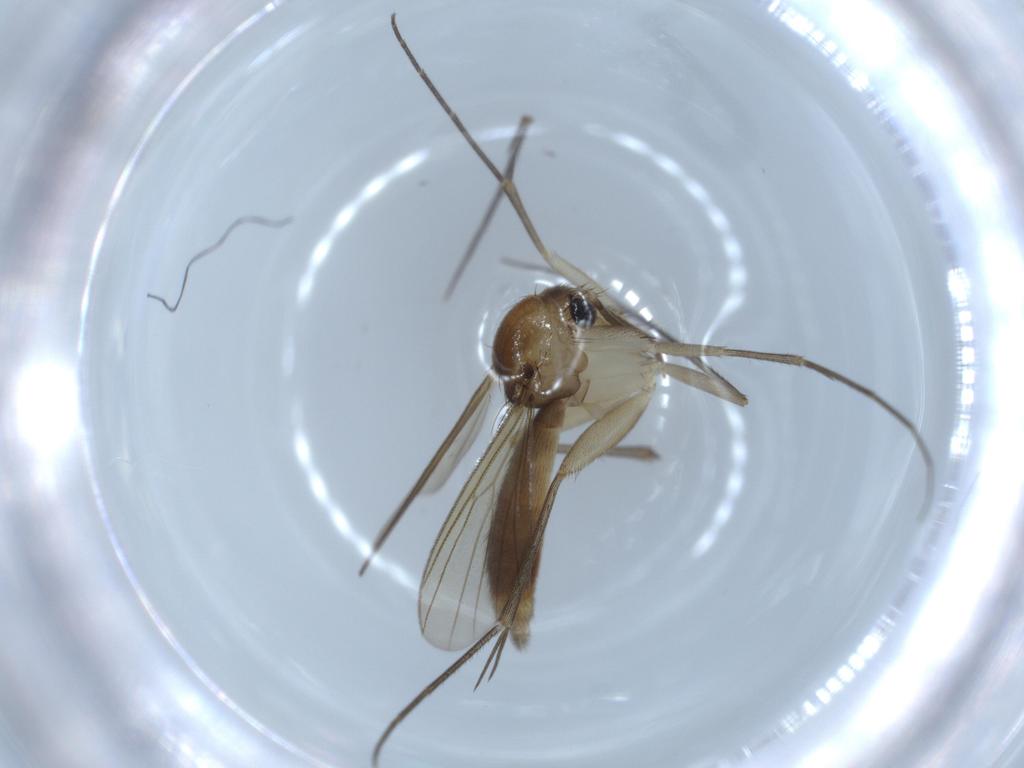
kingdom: Animalia
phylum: Arthropoda
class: Insecta
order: Diptera
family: Mycetophilidae
